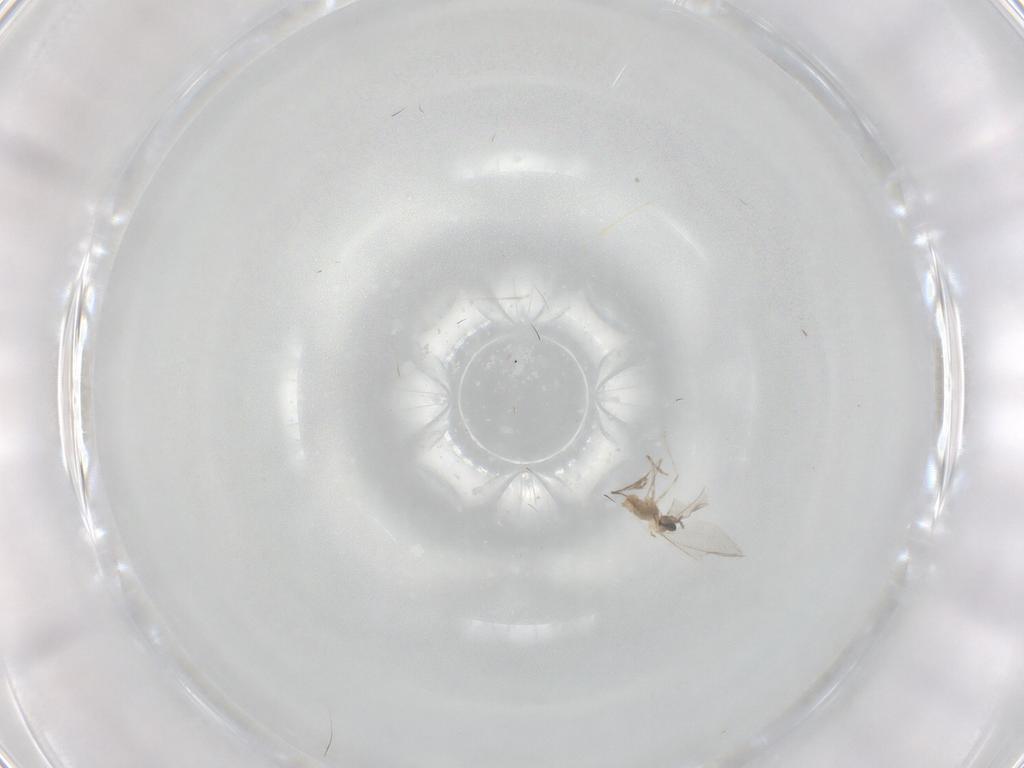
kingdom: Animalia
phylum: Arthropoda
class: Insecta
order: Diptera
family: Cecidomyiidae
